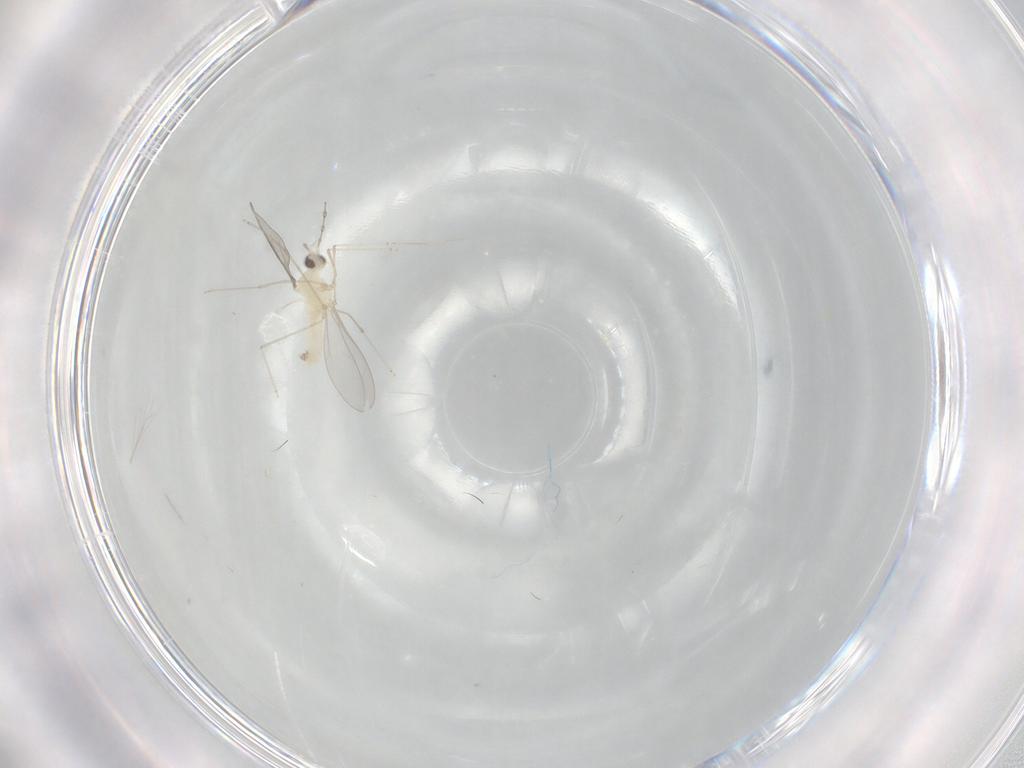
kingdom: Animalia
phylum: Arthropoda
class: Insecta
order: Diptera
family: Cecidomyiidae
